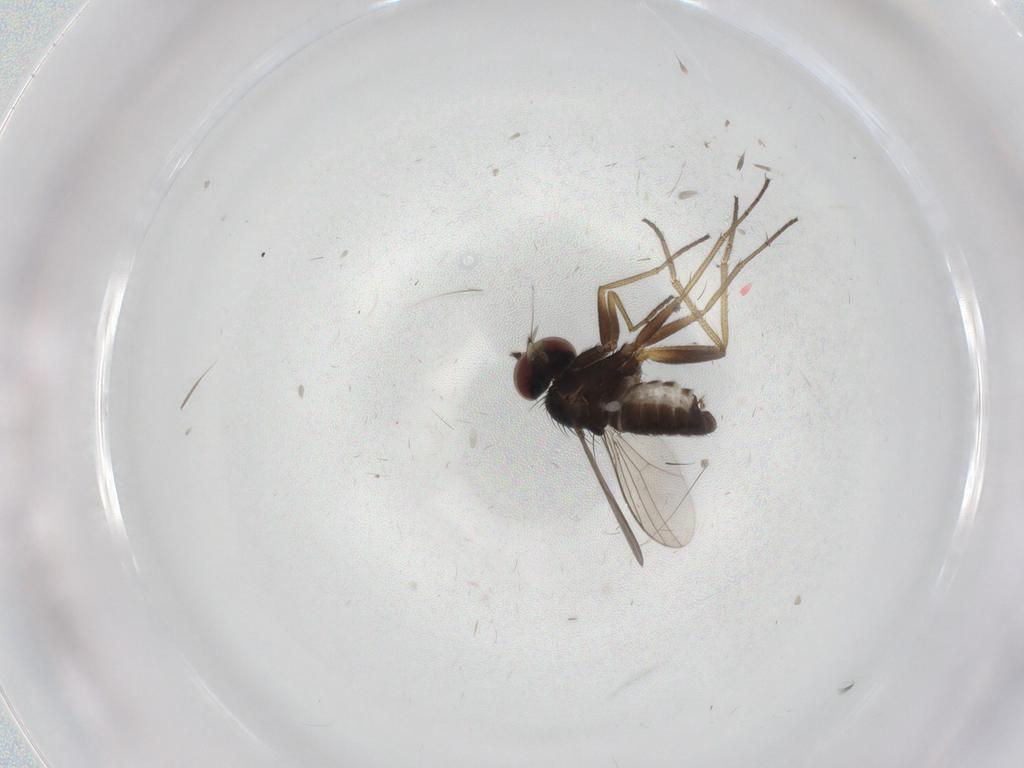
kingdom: Animalia
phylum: Arthropoda
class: Insecta
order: Diptera
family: Dolichopodidae
